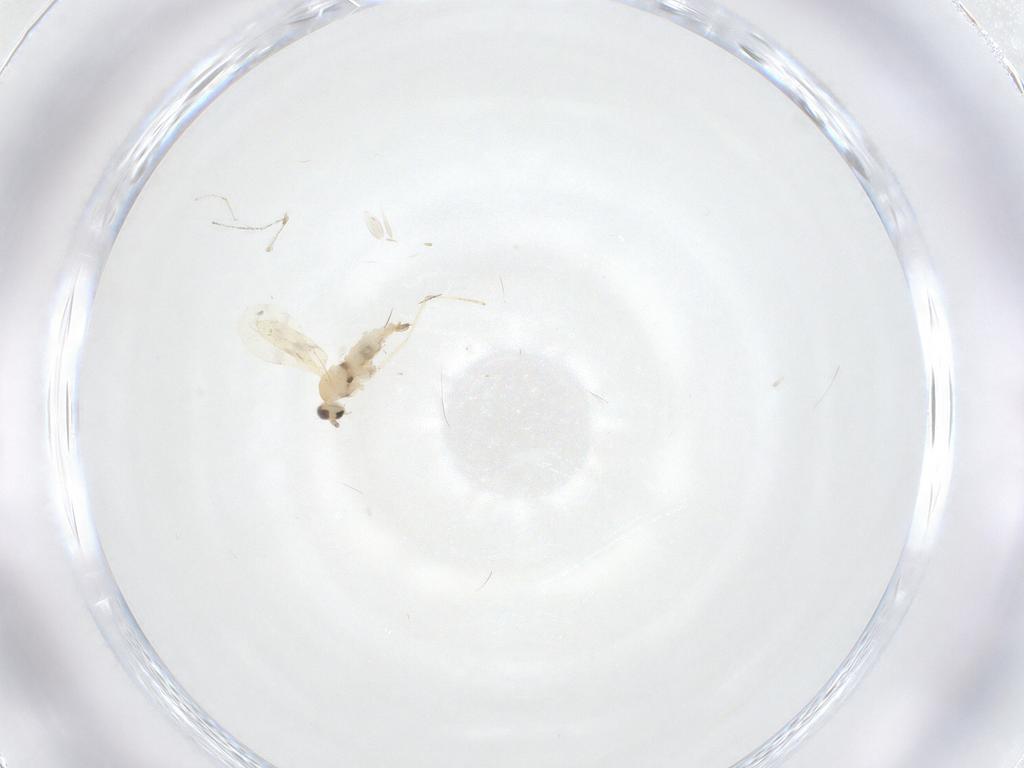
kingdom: Animalia
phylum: Arthropoda
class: Insecta
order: Diptera
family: Cecidomyiidae
